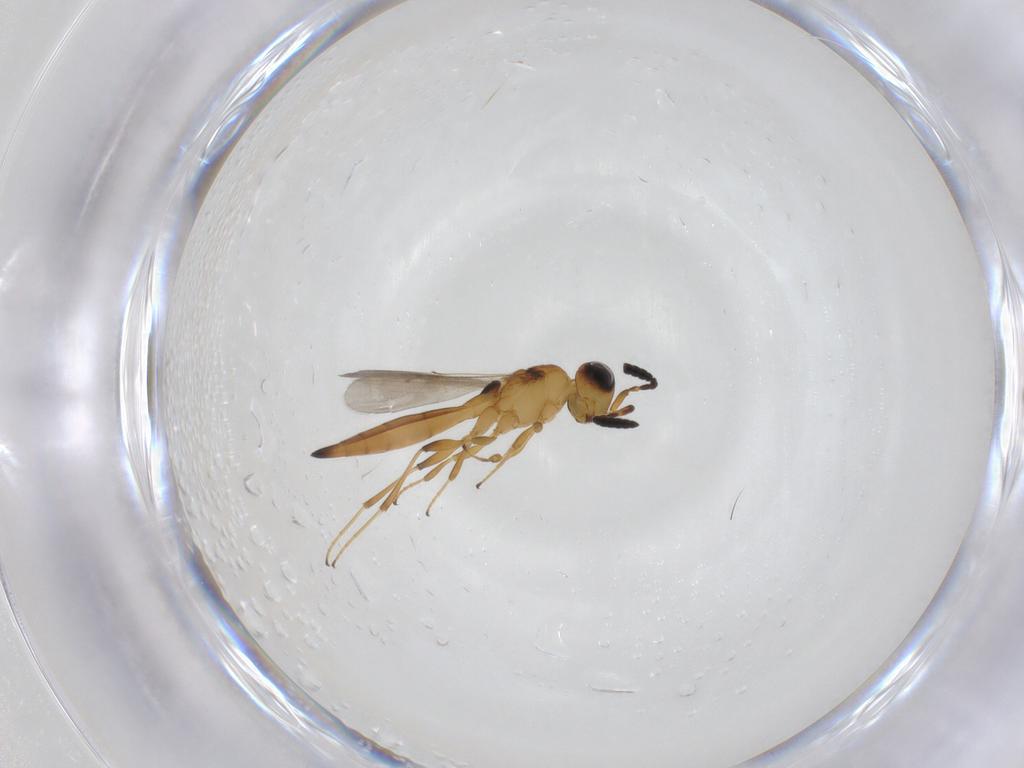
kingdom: Animalia
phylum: Arthropoda
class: Insecta
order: Hymenoptera
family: Scelionidae
